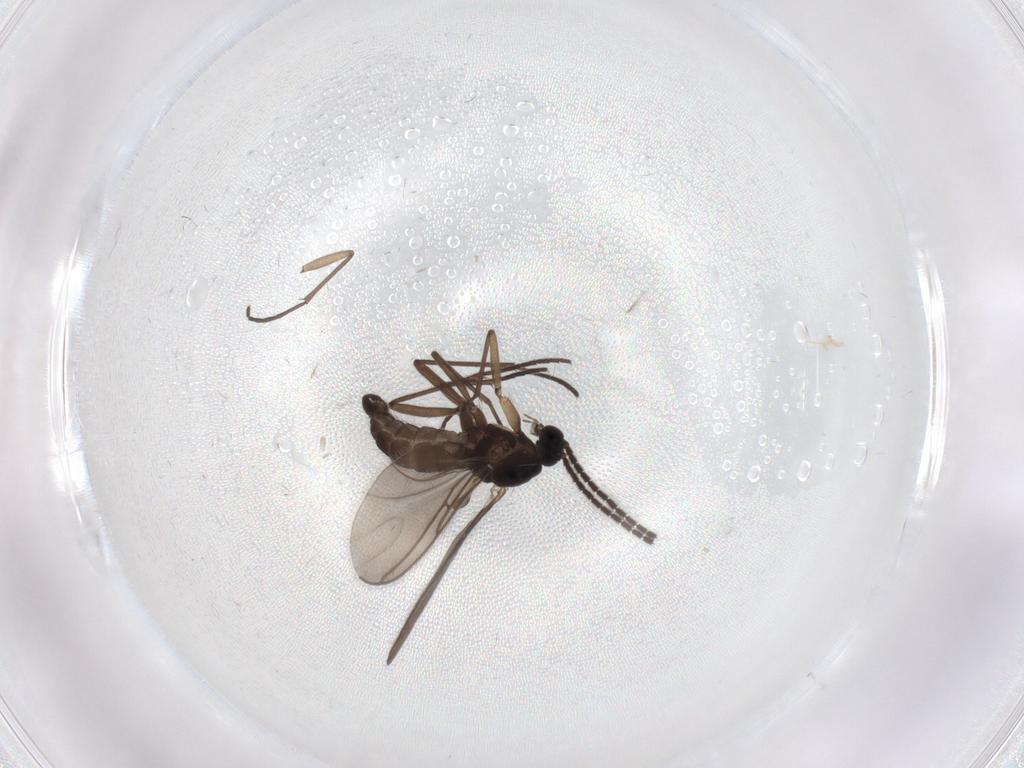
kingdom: Animalia
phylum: Arthropoda
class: Insecta
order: Diptera
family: Sciaridae
